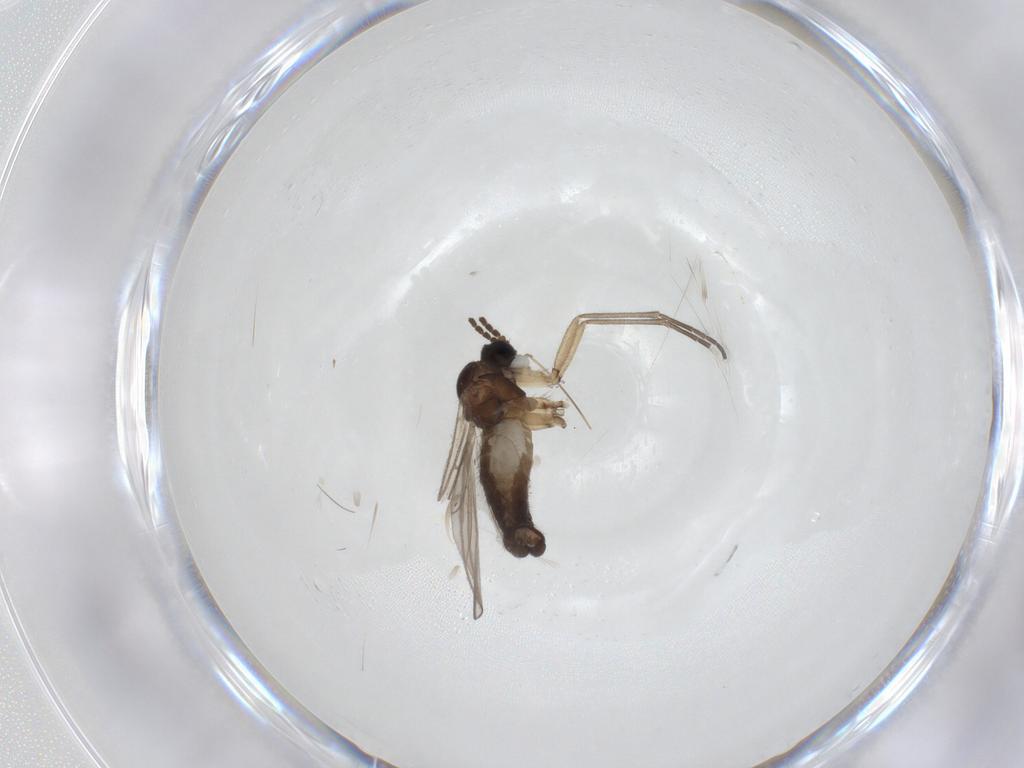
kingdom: Animalia
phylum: Arthropoda
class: Insecta
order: Diptera
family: Sciaridae
